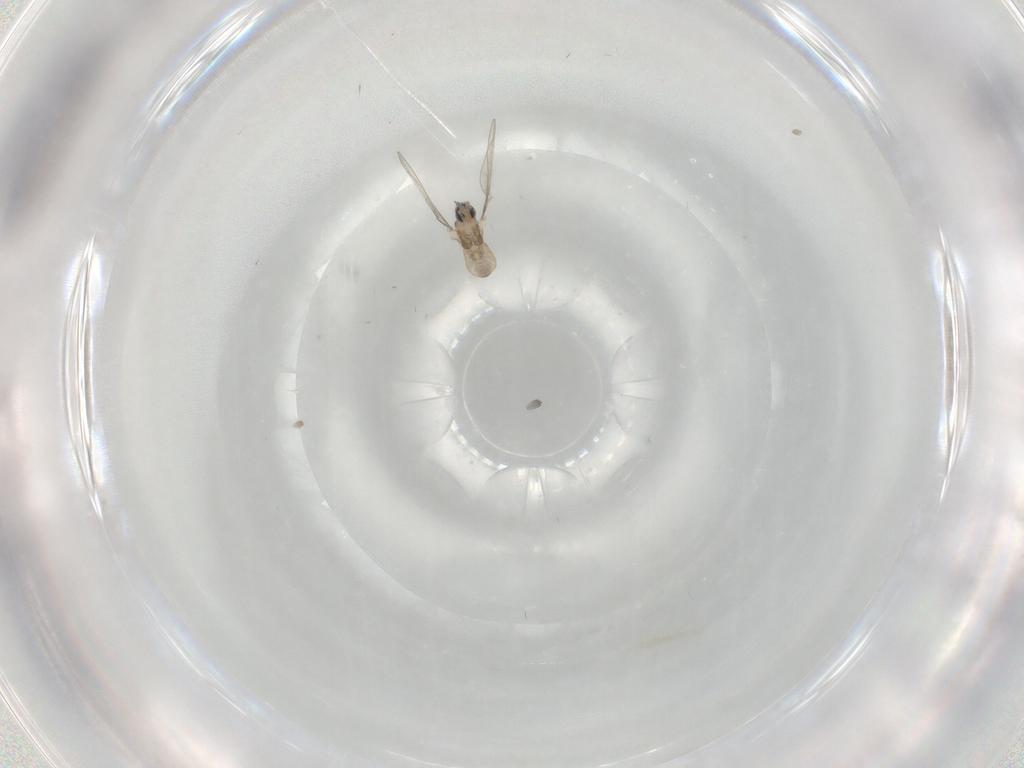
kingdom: Animalia
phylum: Arthropoda
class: Insecta
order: Diptera
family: Cecidomyiidae
